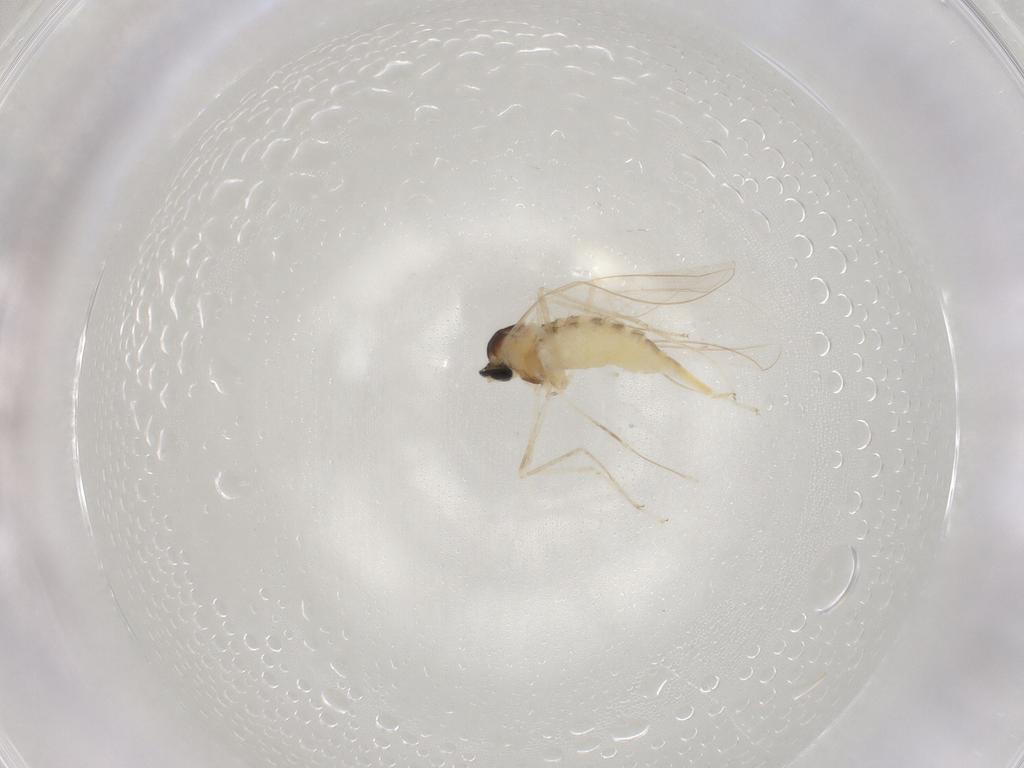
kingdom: Animalia
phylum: Arthropoda
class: Insecta
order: Diptera
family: Cecidomyiidae
